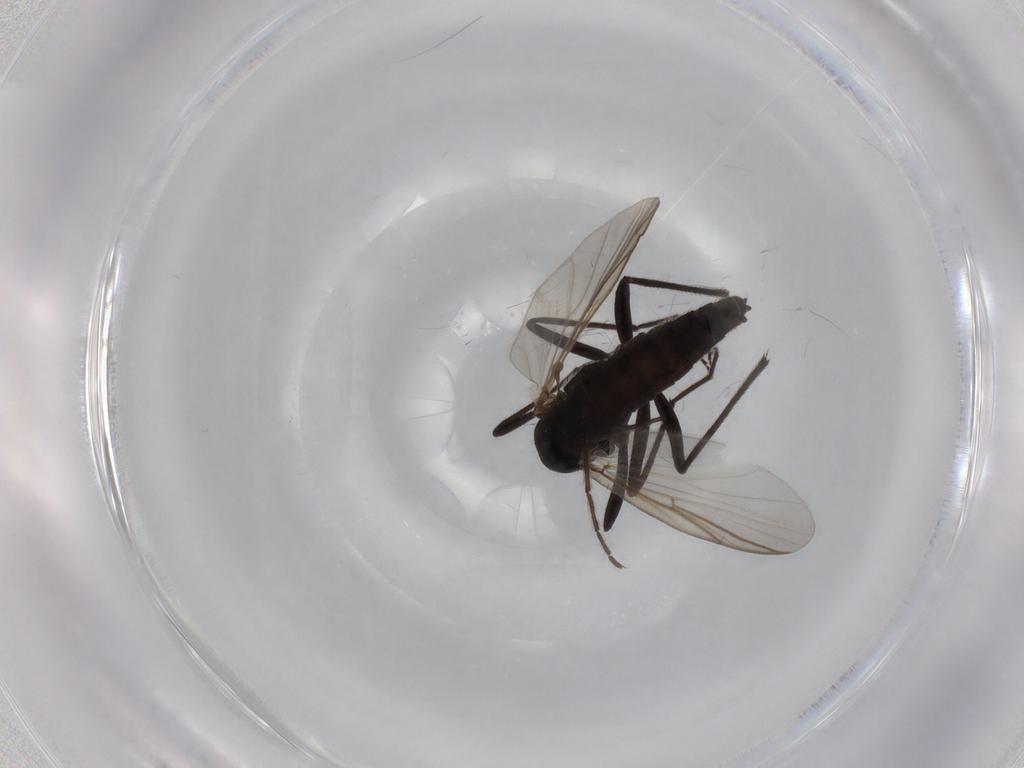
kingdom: Animalia
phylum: Arthropoda
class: Insecta
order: Diptera
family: Chironomidae
